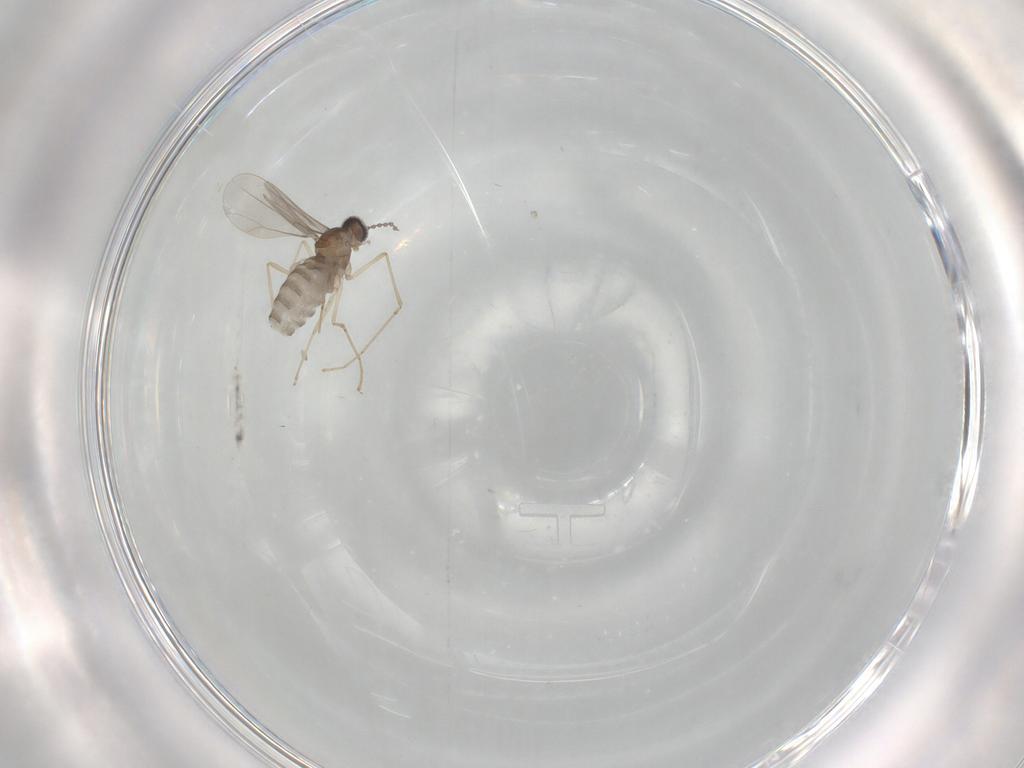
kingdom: Animalia
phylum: Arthropoda
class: Insecta
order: Diptera
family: Cecidomyiidae
